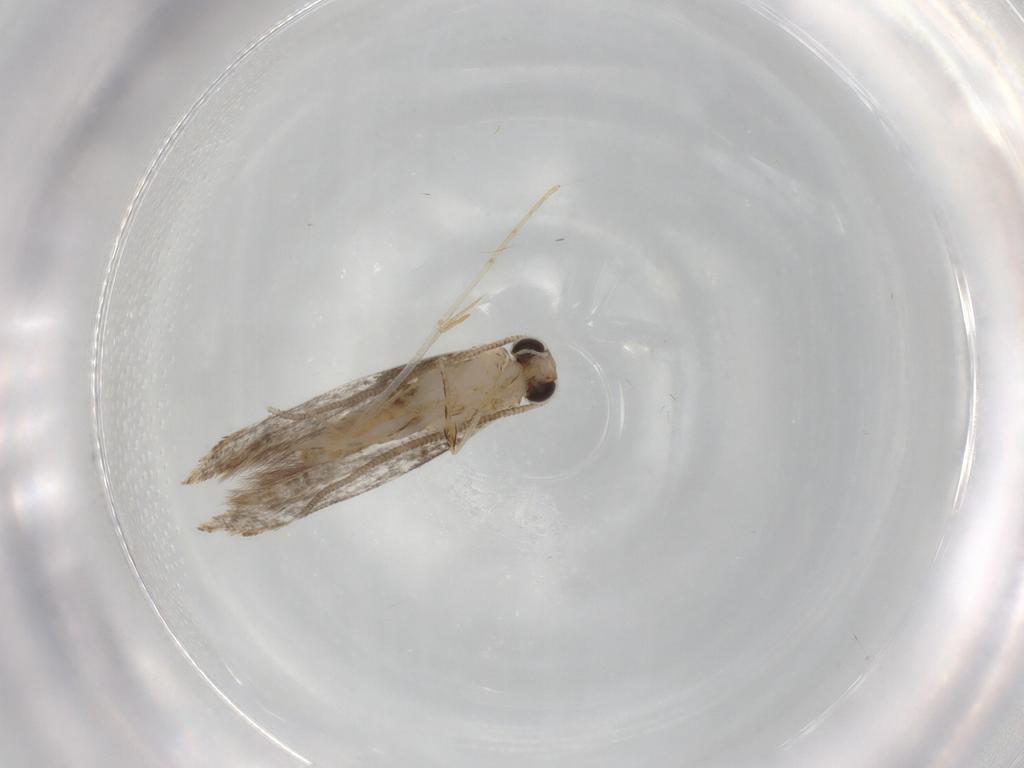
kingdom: Animalia
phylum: Arthropoda
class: Insecta
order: Lepidoptera
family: Tineidae
